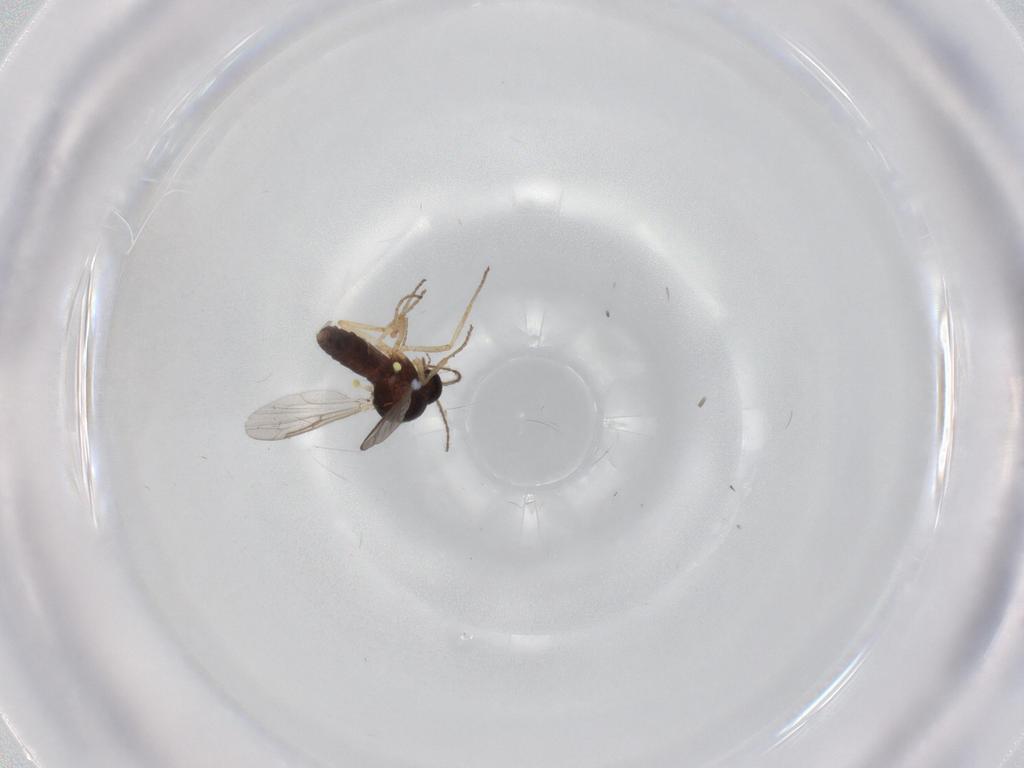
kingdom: Animalia
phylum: Arthropoda
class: Insecta
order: Diptera
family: Ceratopogonidae
